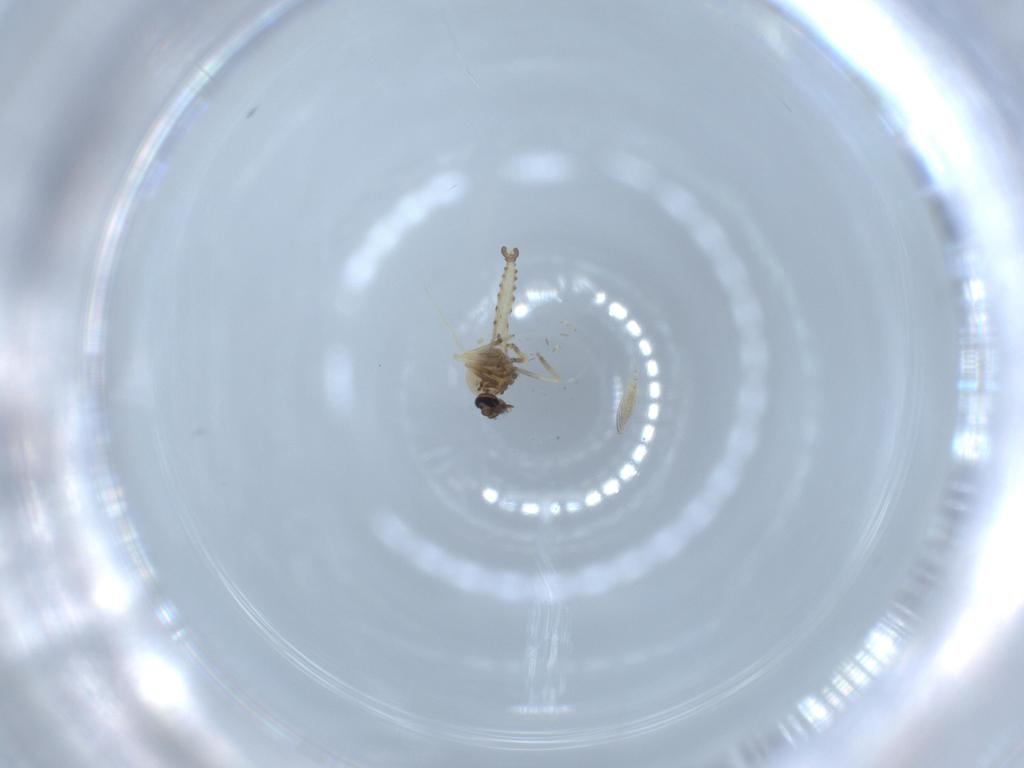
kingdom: Animalia
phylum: Arthropoda
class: Insecta
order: Diptera
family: Ceratopogonidae
